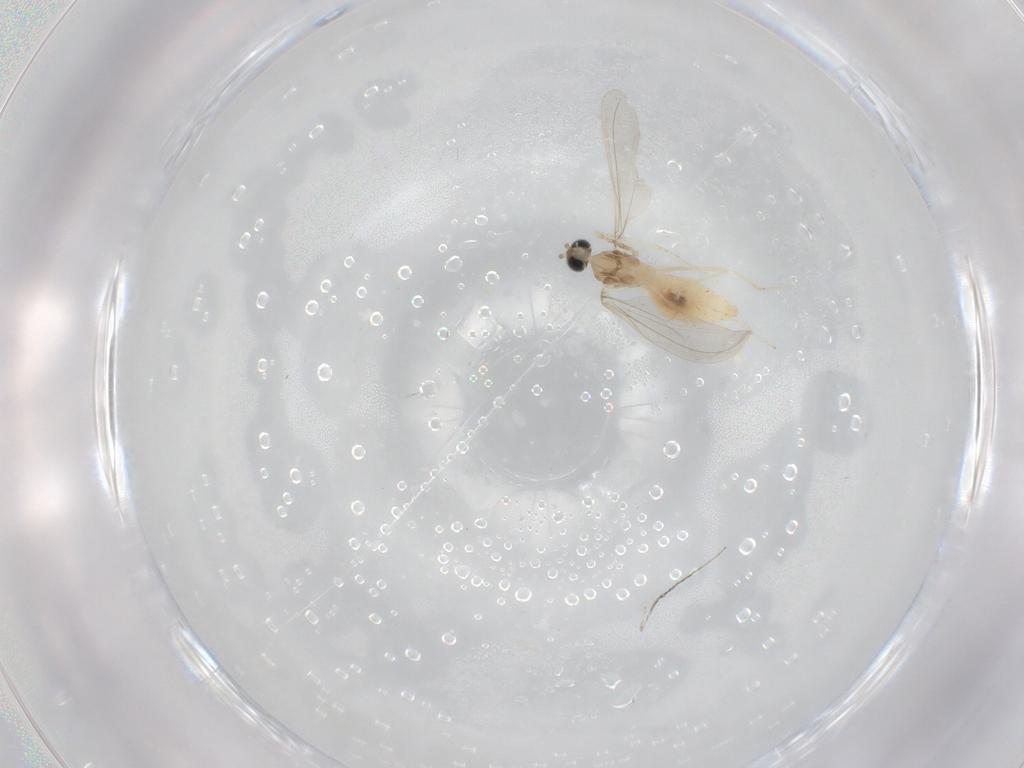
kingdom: Animalia
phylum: Arthropoda
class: Insecta
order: Diptera
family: Cecidomyiidae
